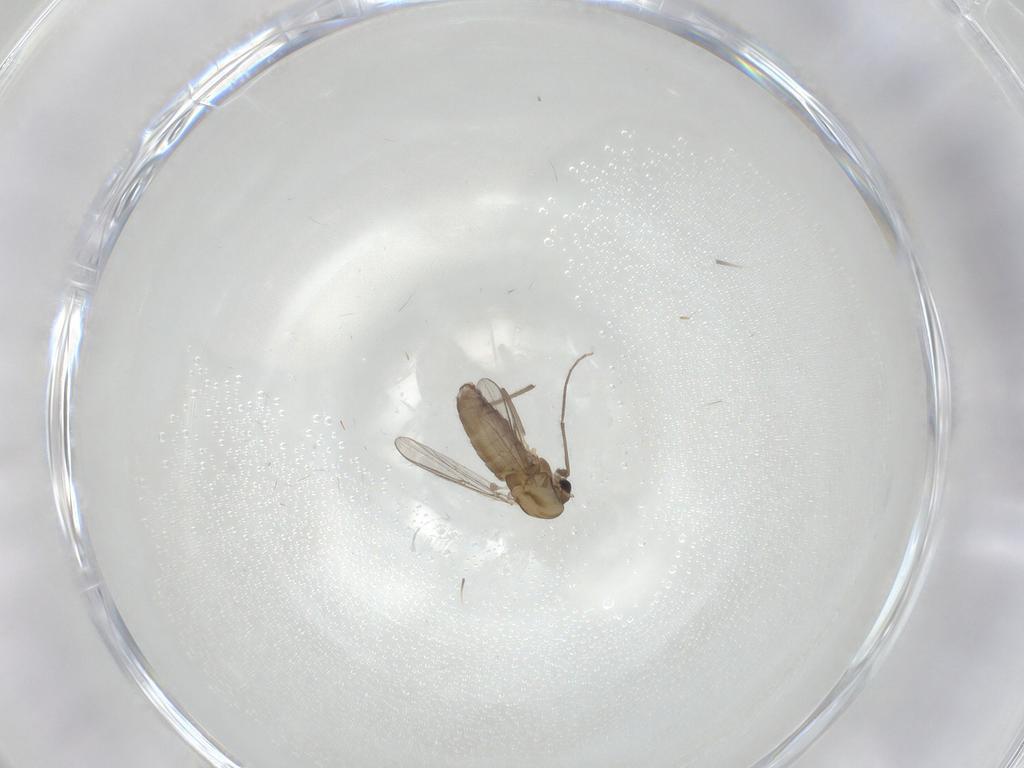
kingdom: Animalia
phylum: Arthropoda
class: Insecta
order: Diptera
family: Chironomidae
